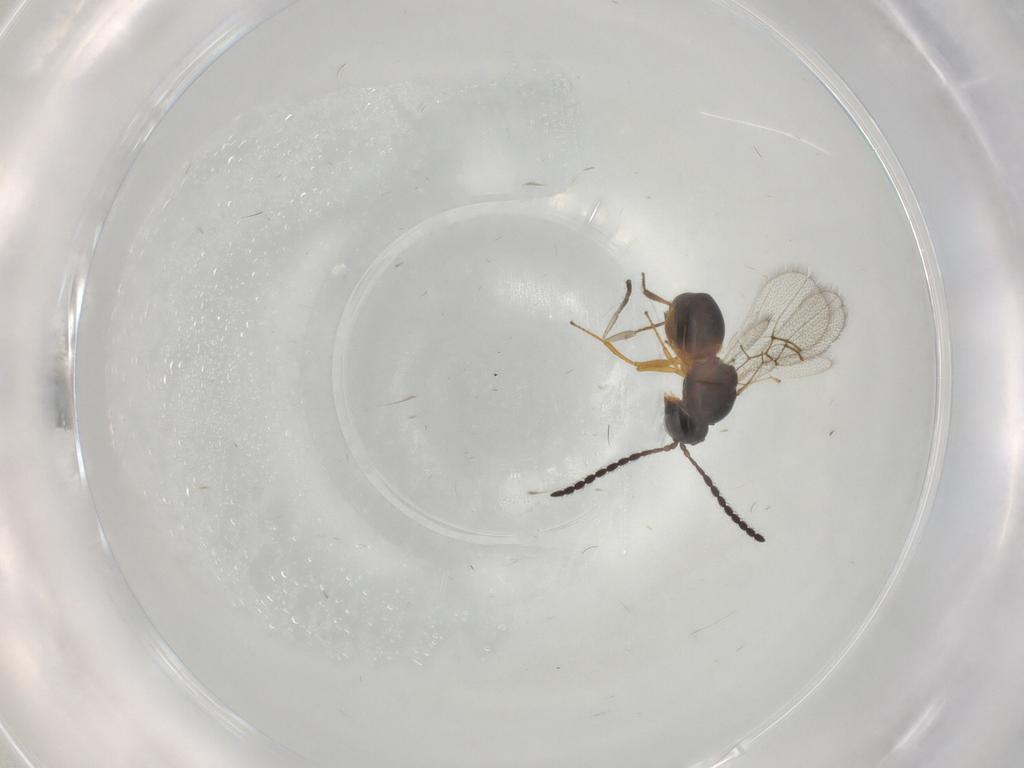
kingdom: Animalia
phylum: Arthropoda
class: Insecta
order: Hymenoptera
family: Figitidae
